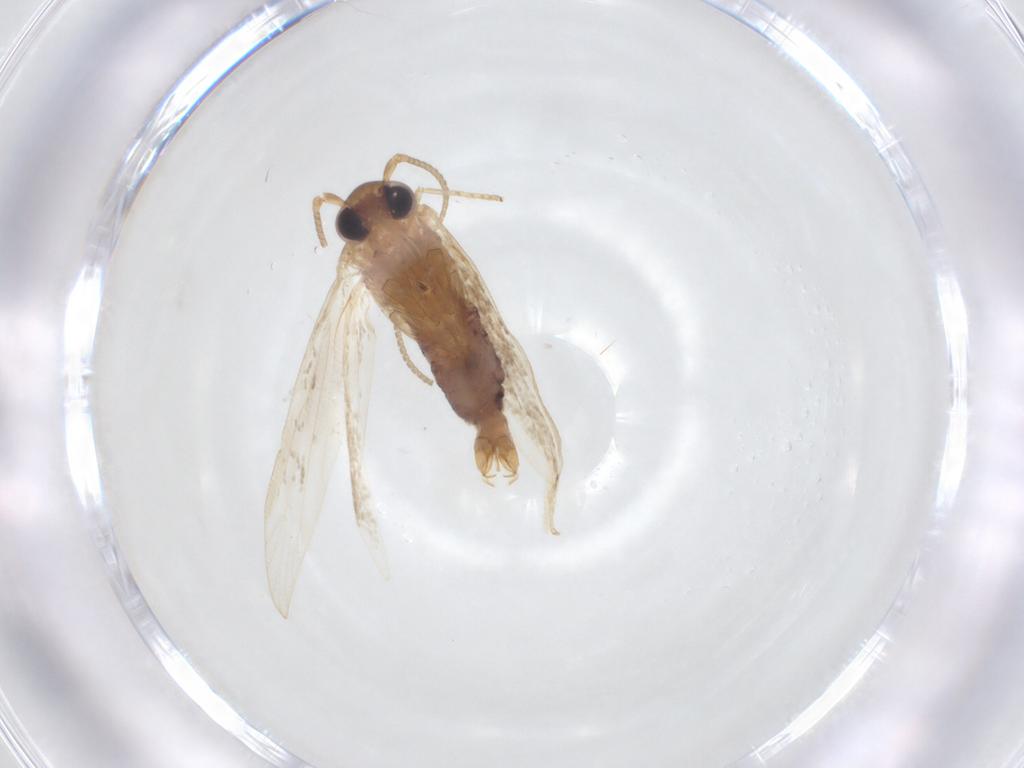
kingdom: Animalia
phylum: Arthropoda
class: Insecta
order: Lepidoptera
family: Blastobasidae
